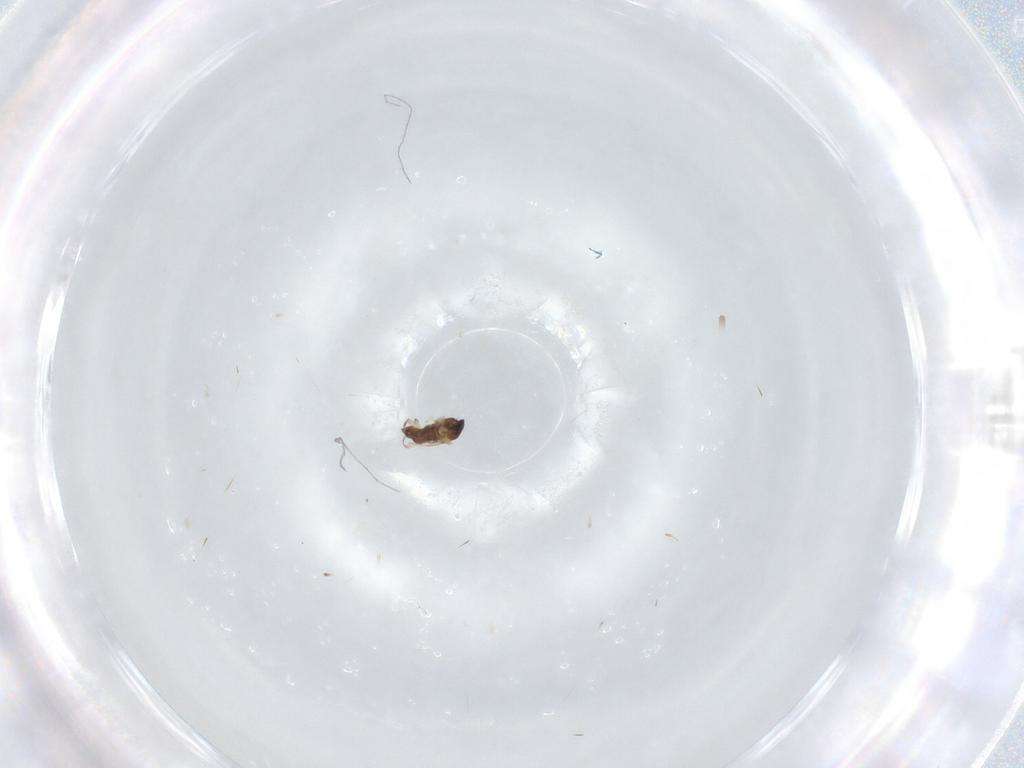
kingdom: Animalia
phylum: Arthropoda
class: Insecta
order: Diptera
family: Cecidomyiidae
